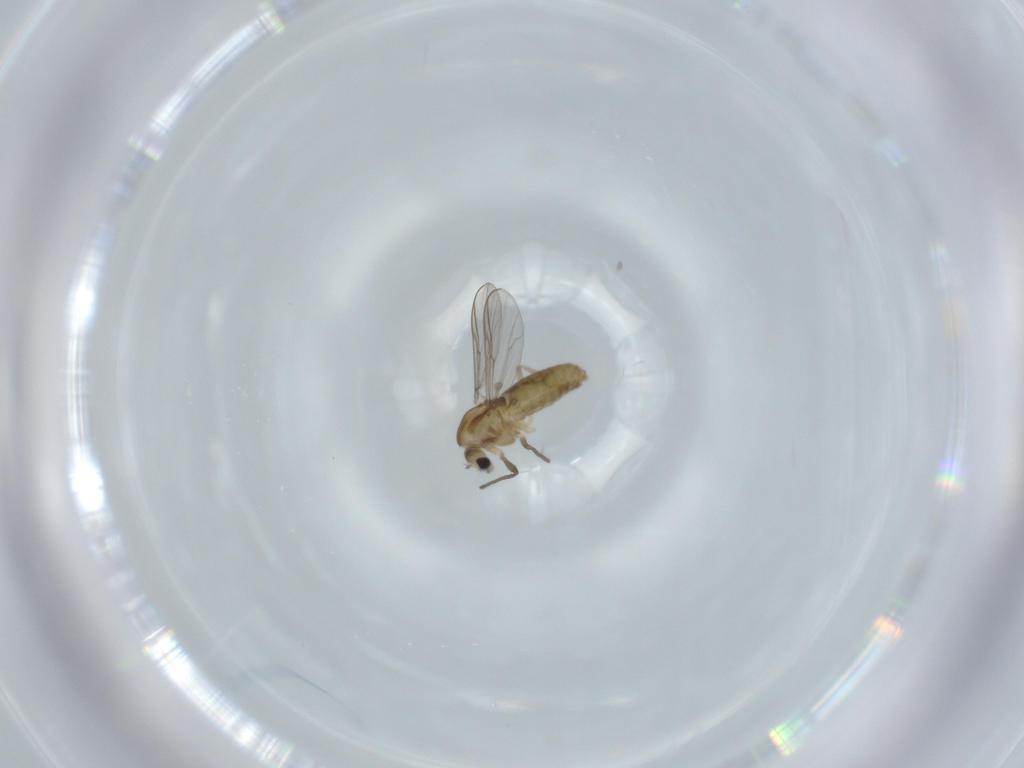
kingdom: Animalia
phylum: Arthropoda
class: Insecta
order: Diptera
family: Chironomidae
